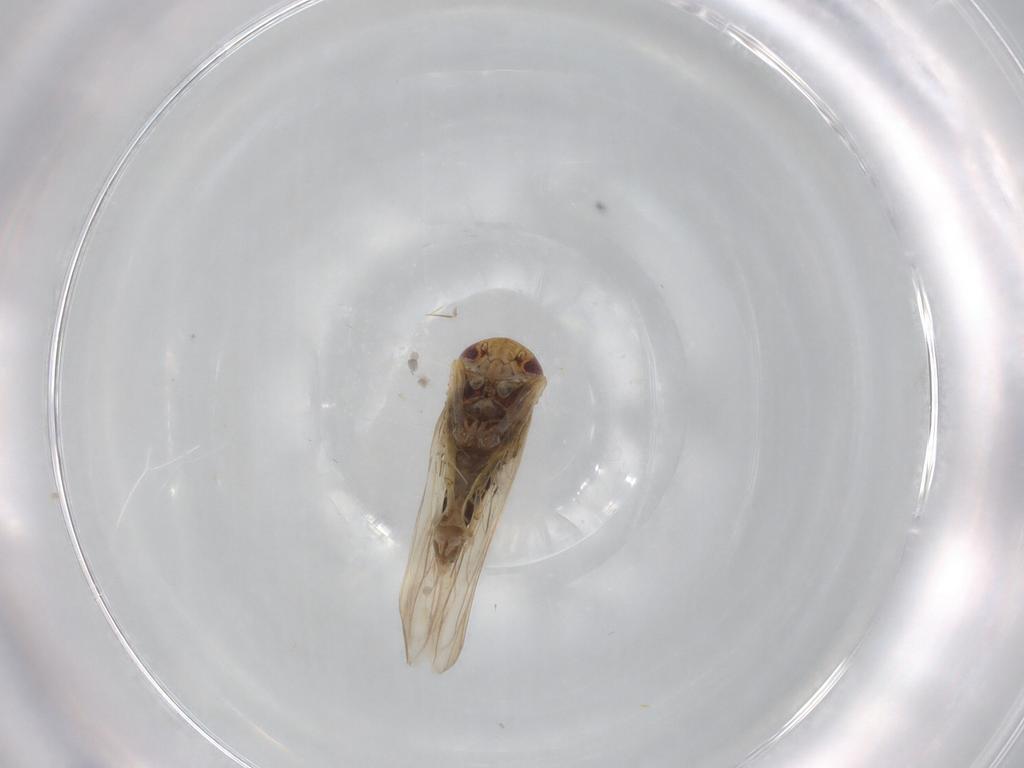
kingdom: Animalia
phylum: Arthropoda
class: Insecta
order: Hemiptera
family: Cicadellidae
